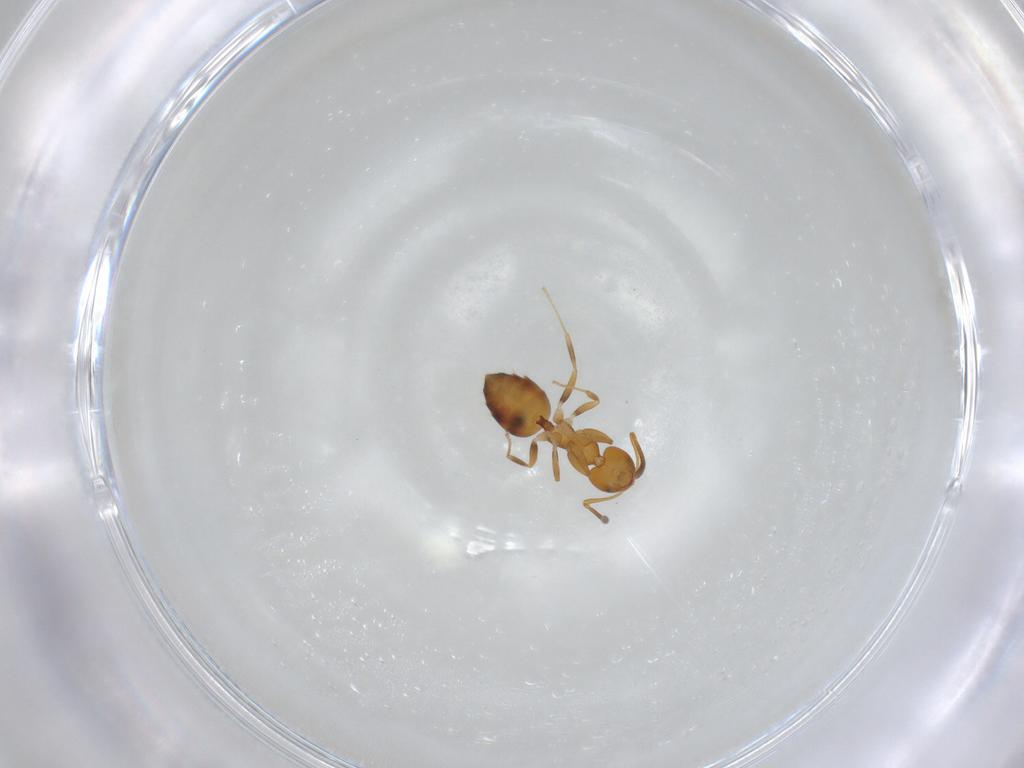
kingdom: Animalia
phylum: Arthropoda
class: Insecta
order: Hymenoptera
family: Formicidae
